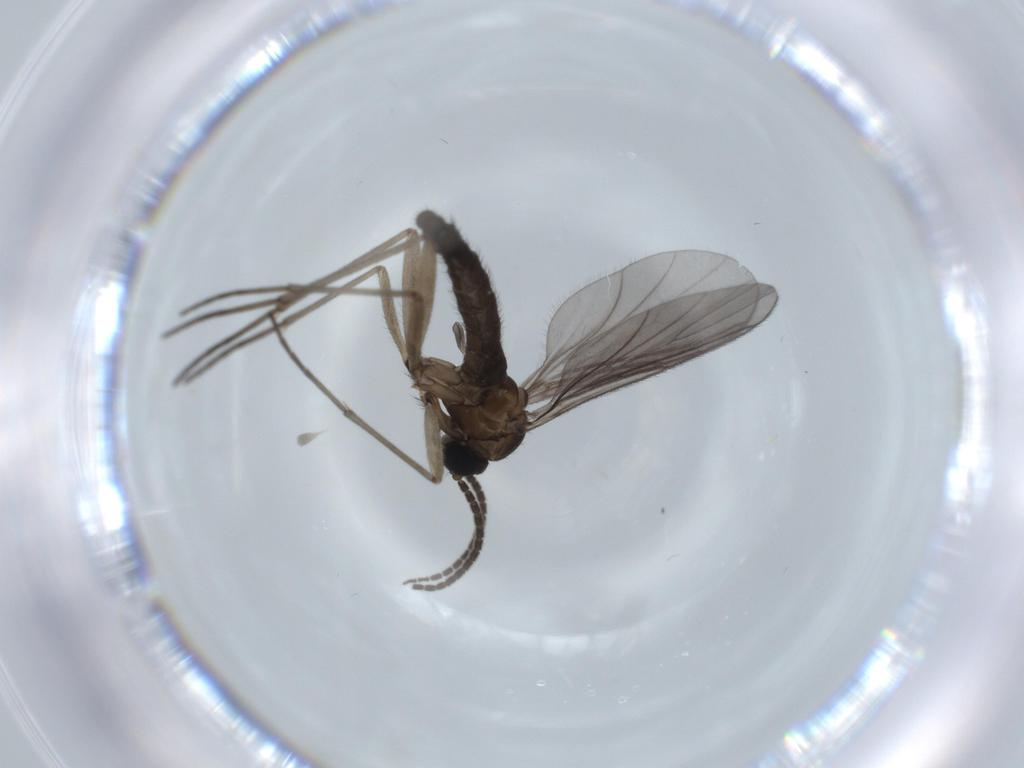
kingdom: Animalia
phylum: Arthropoda
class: Insecta
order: Diptera
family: Sciaridae
